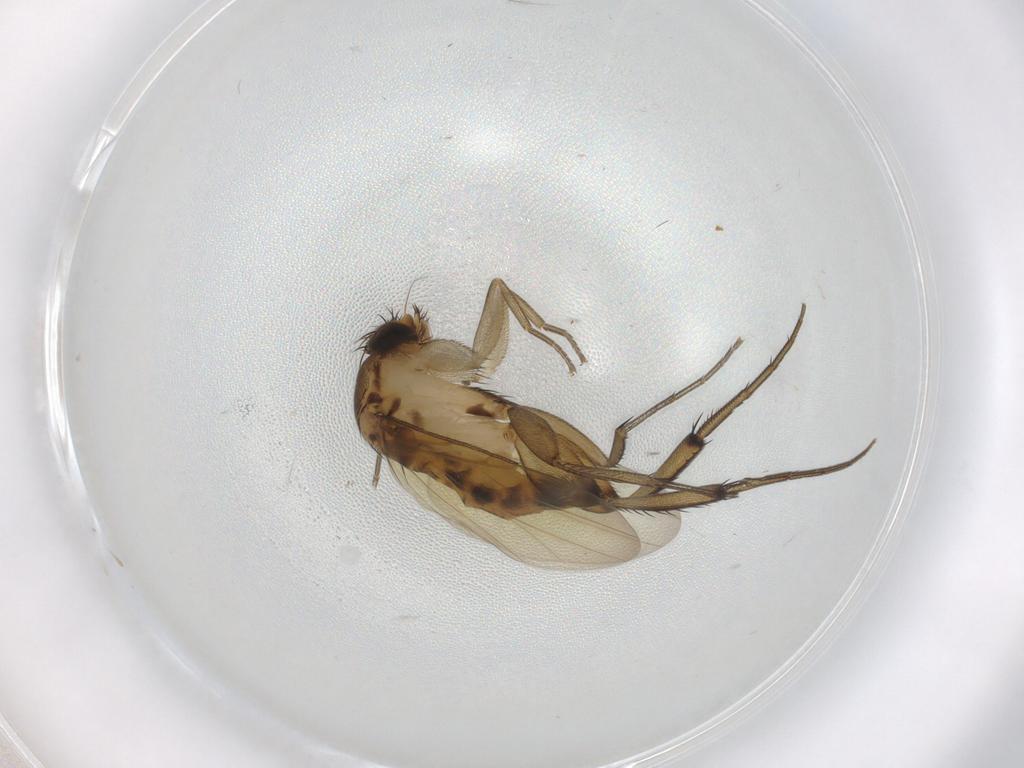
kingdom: Animalia
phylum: Arthropoda
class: Insecta
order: Diptera
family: Phoridae
